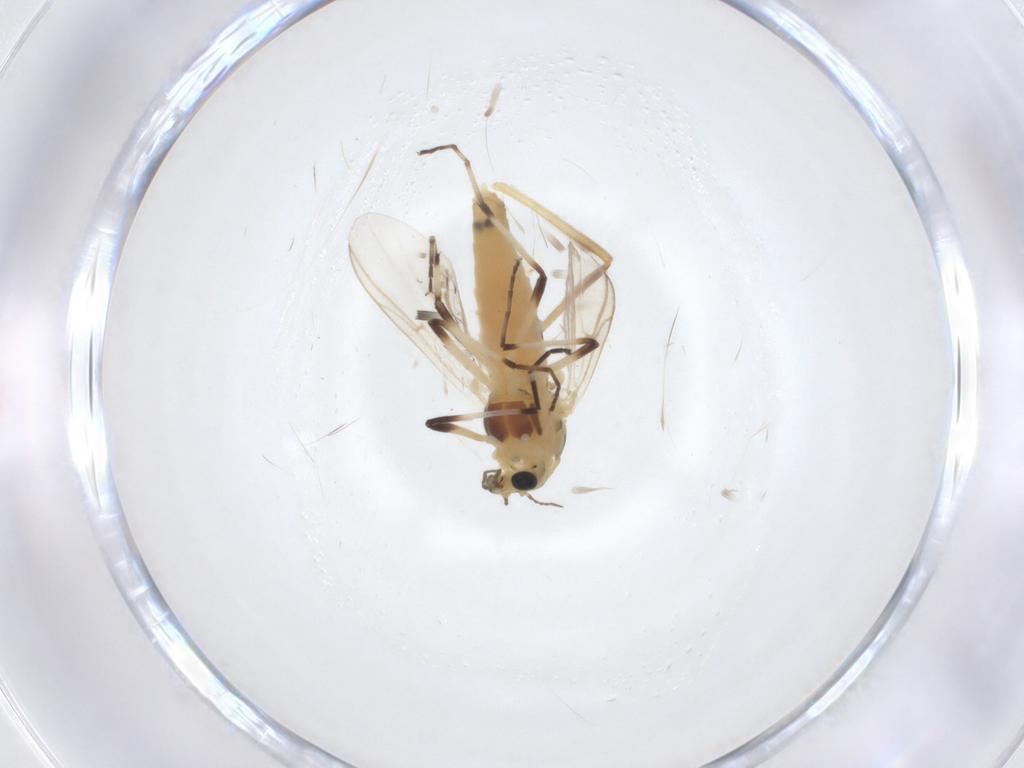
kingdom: Animalia
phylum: Arthropoda
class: Insecta
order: Diptera
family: Chironomidae
